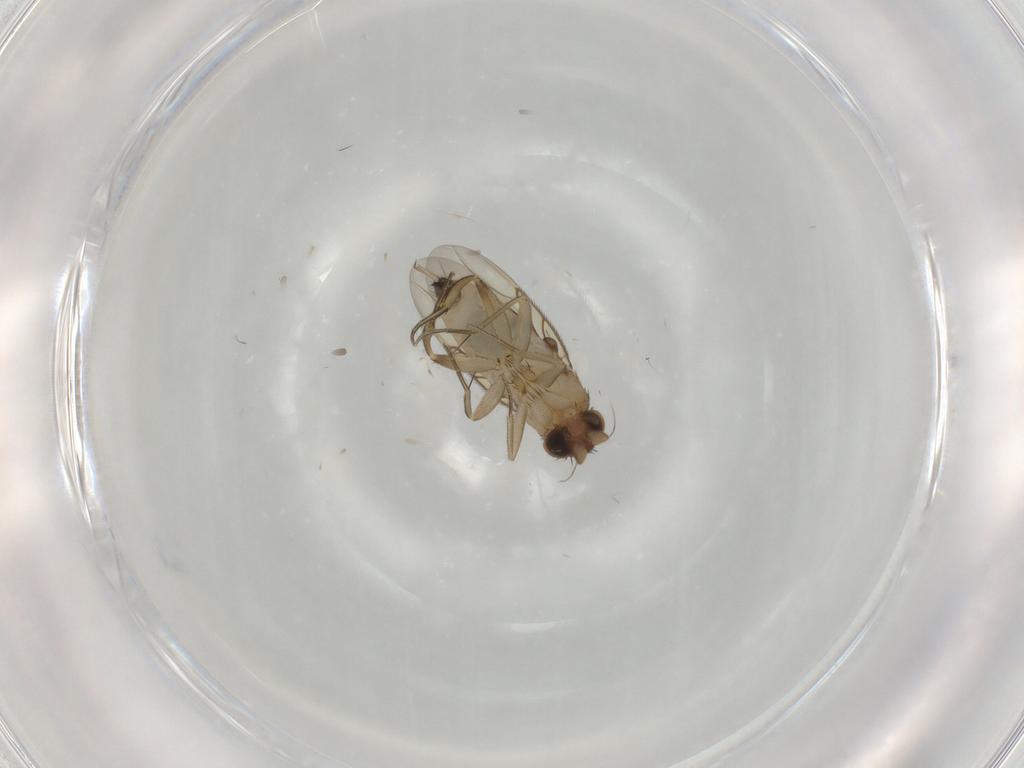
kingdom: Animalia
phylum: Arthropoda
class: Insecta
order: Diptera
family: Phoridae
